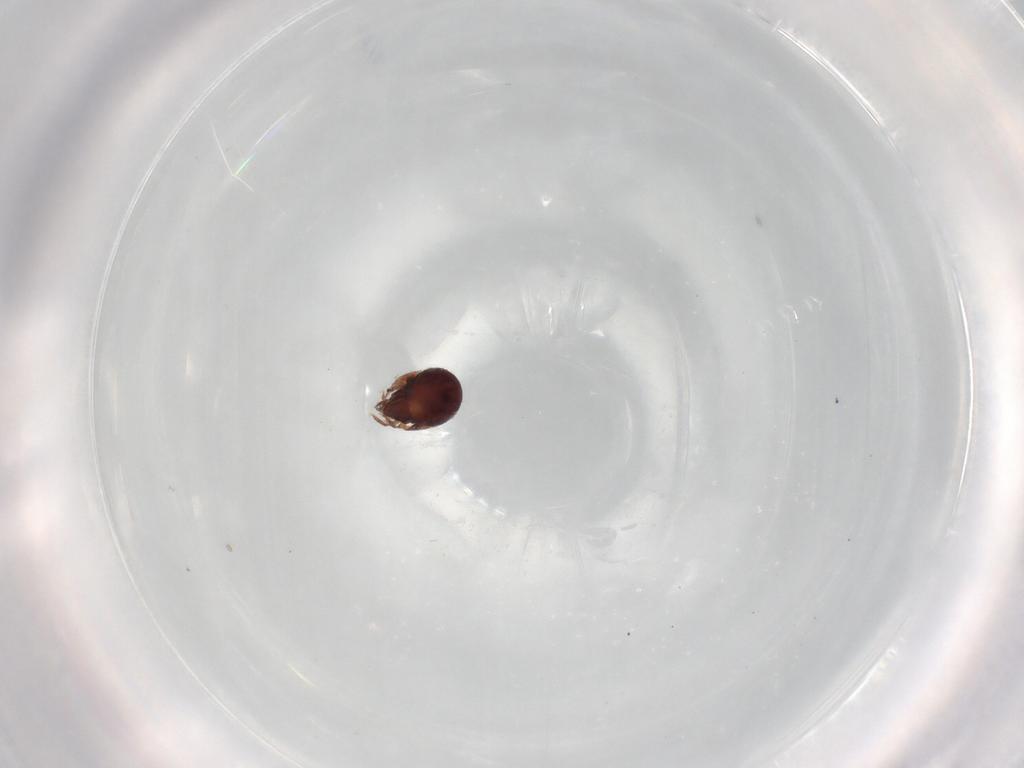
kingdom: Animalia
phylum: Arthropoda
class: Arachnida
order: Sarcoptiformes
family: Humerobatidae
